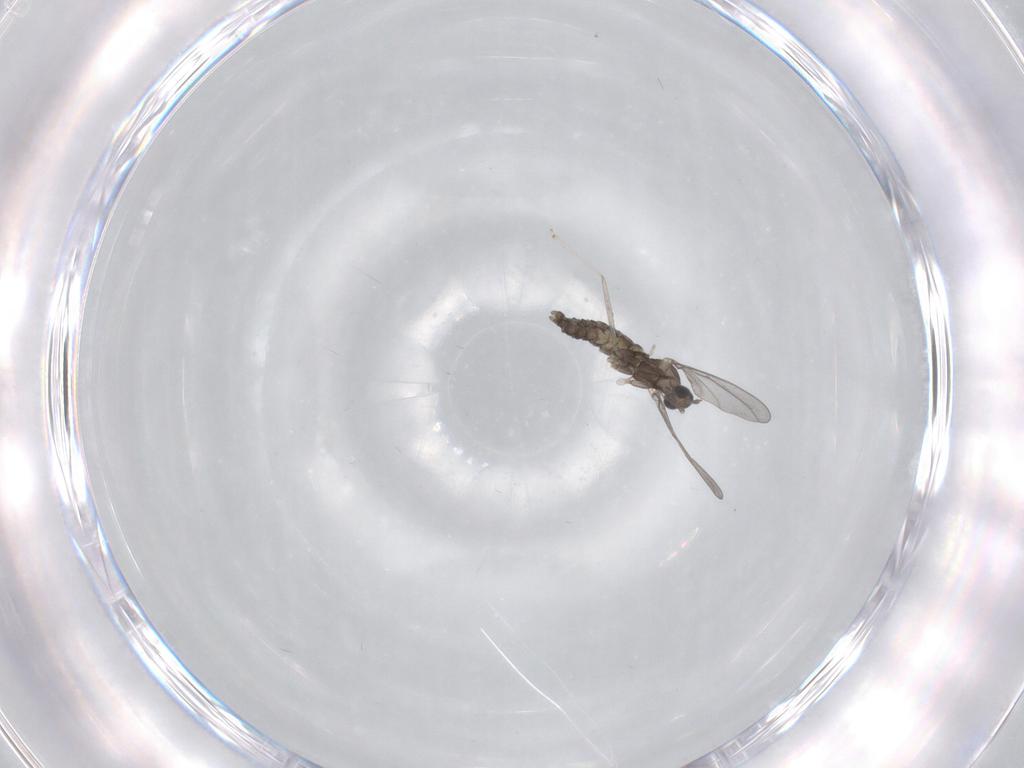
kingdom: Animalia
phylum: Arthropoda
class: Insecta
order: Diptera
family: Cecidomyiidae
